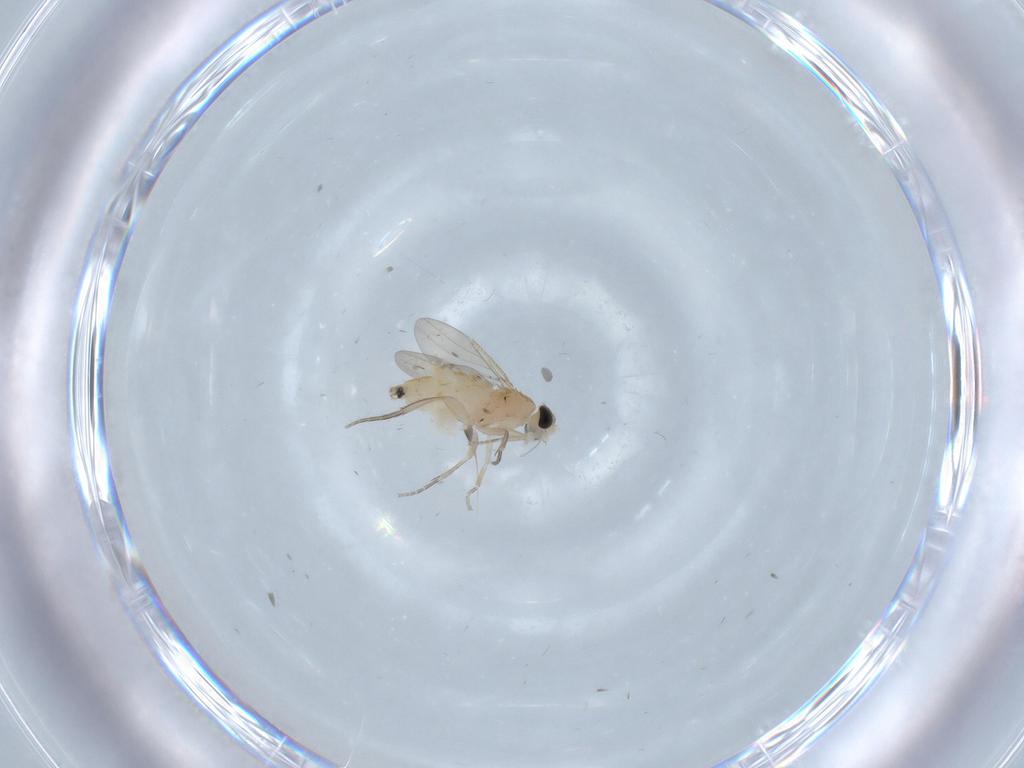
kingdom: Animalia
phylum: Arthropoda
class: Insecta
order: Diptera
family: Phoridae
